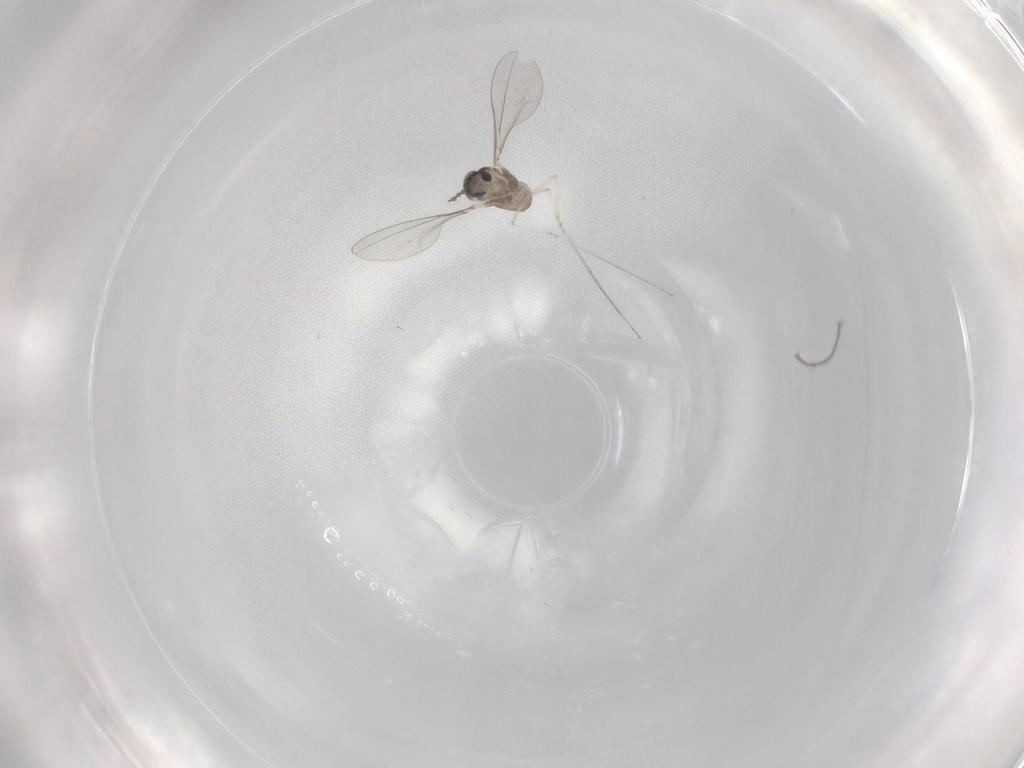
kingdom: Animalia
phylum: Arthropoda
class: Insecta
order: Diptera
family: Cecidomyiidae
